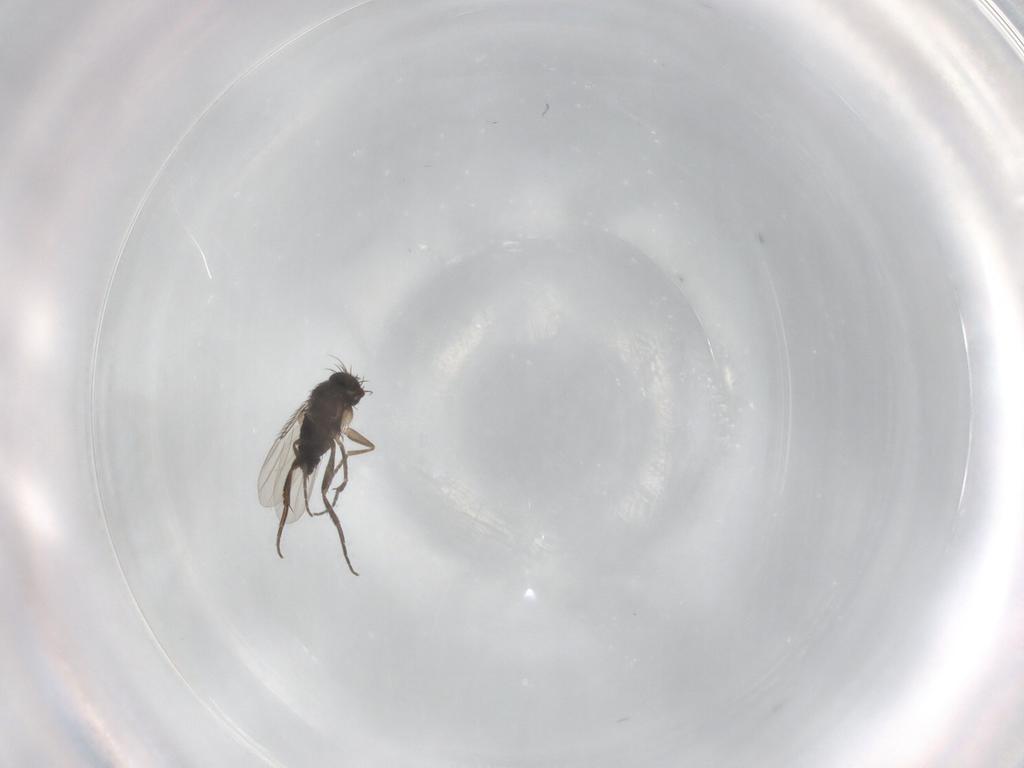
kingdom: Animalia
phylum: Arthropoda
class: Insecta
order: Diptera
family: Phoridae
